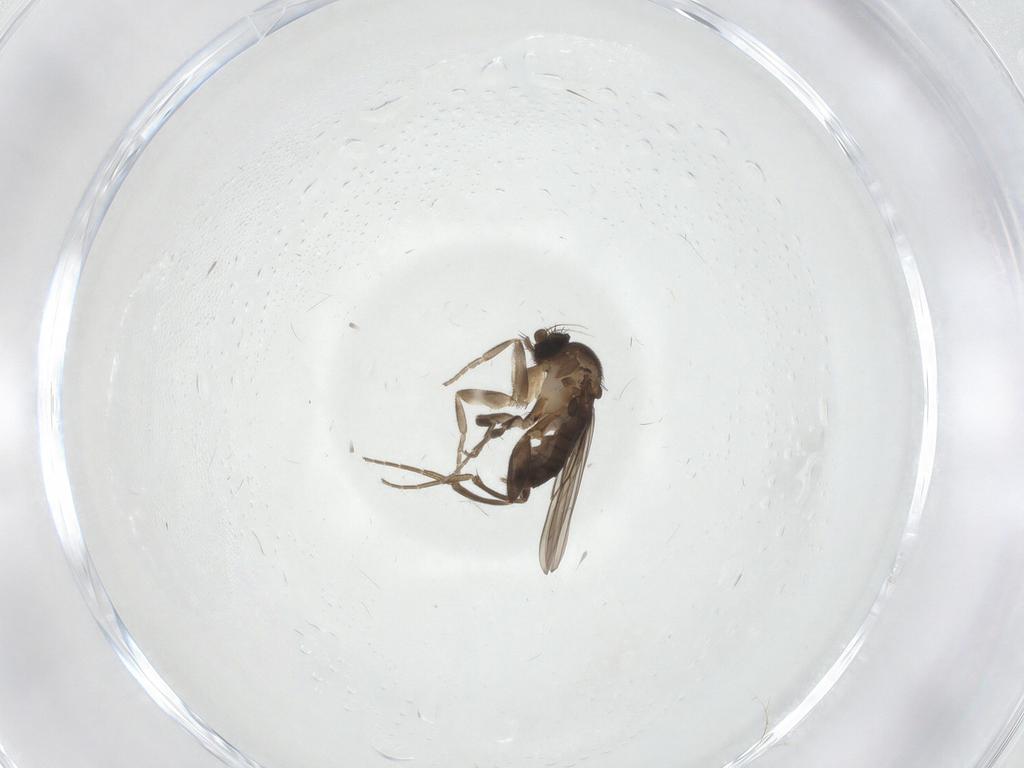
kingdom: Animalia
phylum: Arthropoda
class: Insecta
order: Diptera
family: Phoridae
